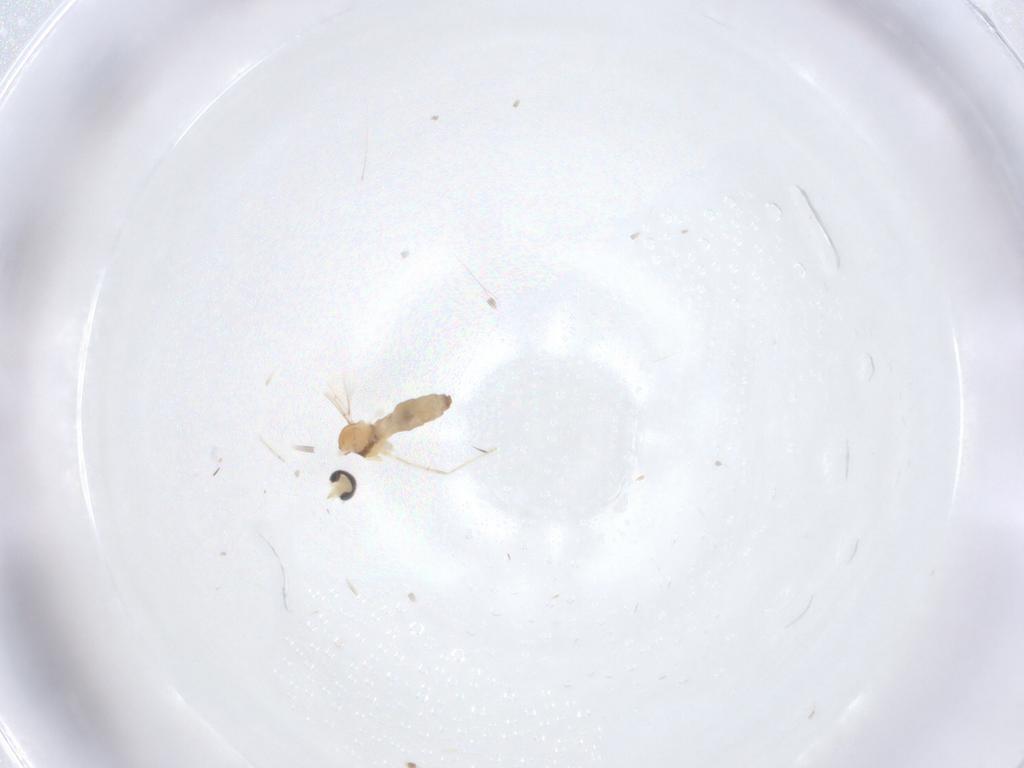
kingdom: Animalia
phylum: Arthropoda
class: Insecta
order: Diptera
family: Cecidomyiidae
